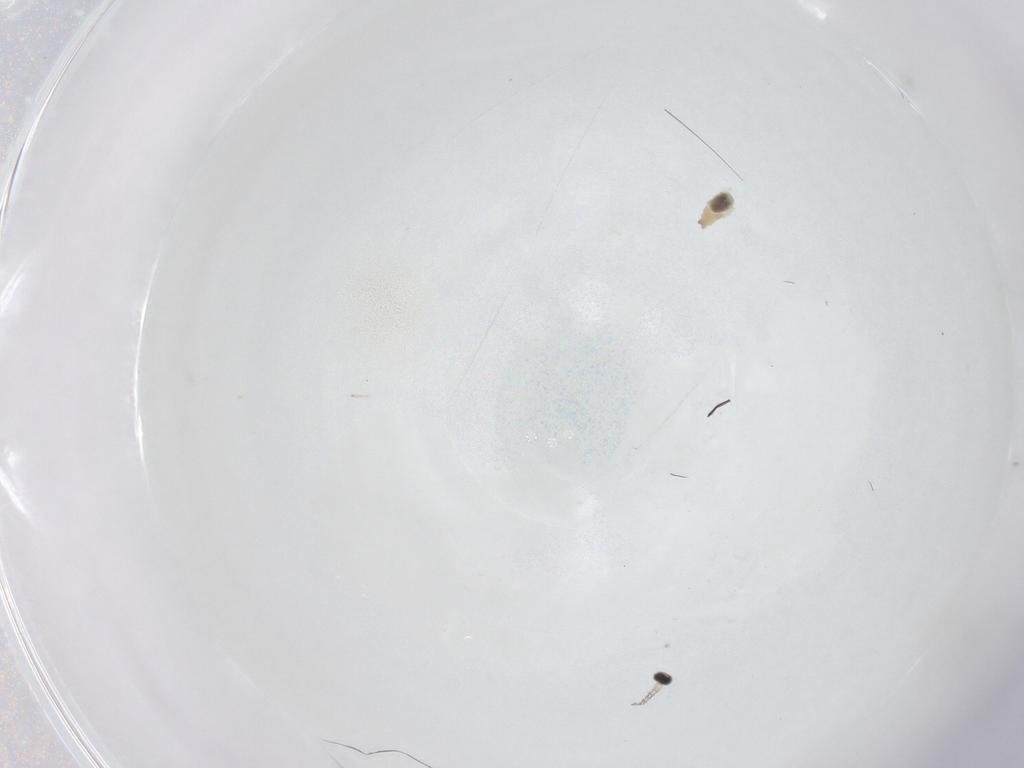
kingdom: Animalia
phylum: Arthropoda
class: Insecta
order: Diptera
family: Cecidomyiidae
